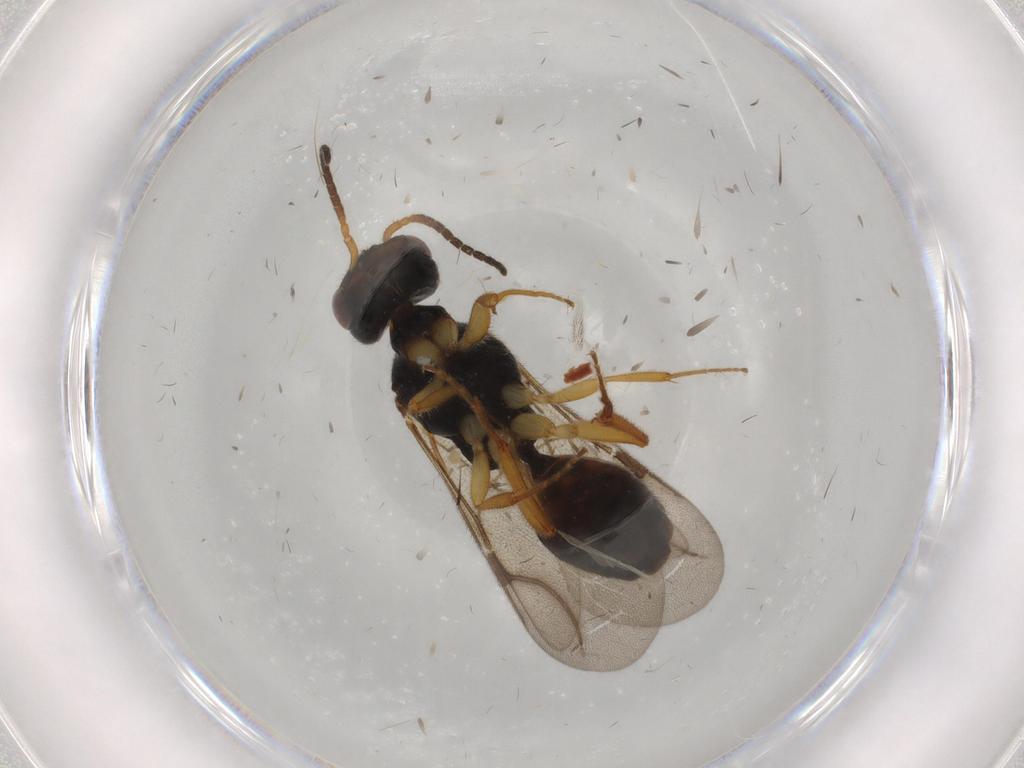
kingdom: Animalia
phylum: Arthropoda
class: Insecta
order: Hymenoptera
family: Bethylidae
